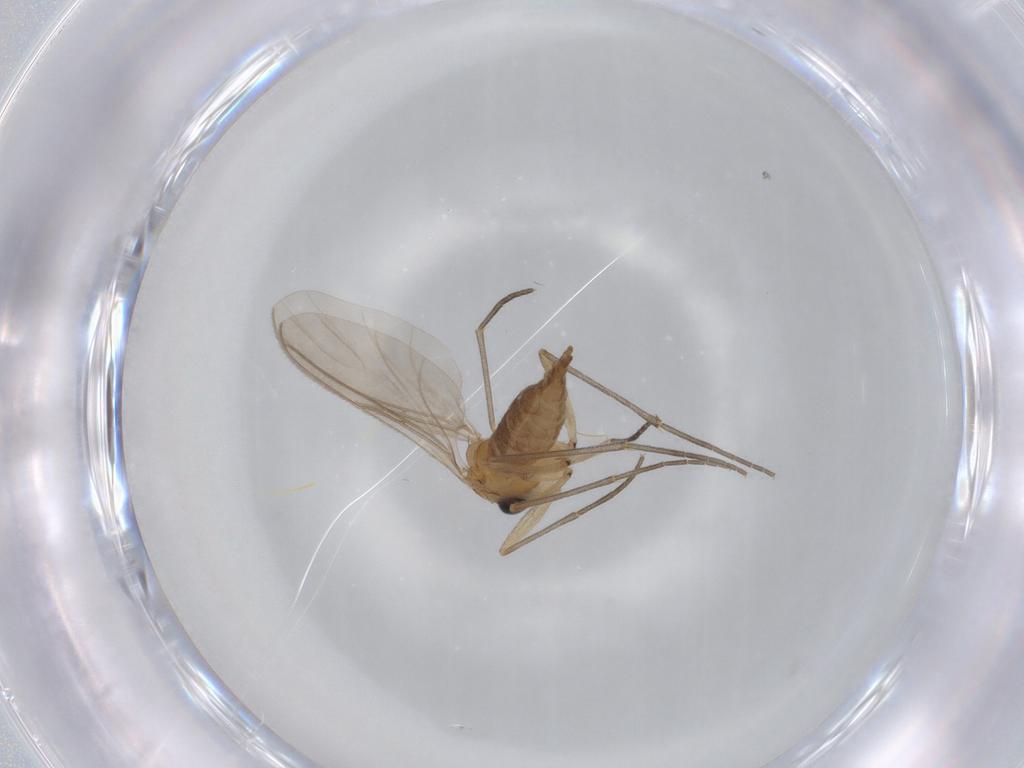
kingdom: Animalia
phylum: Arthropoda
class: Insecta
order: Diptera
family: Sciaridae
